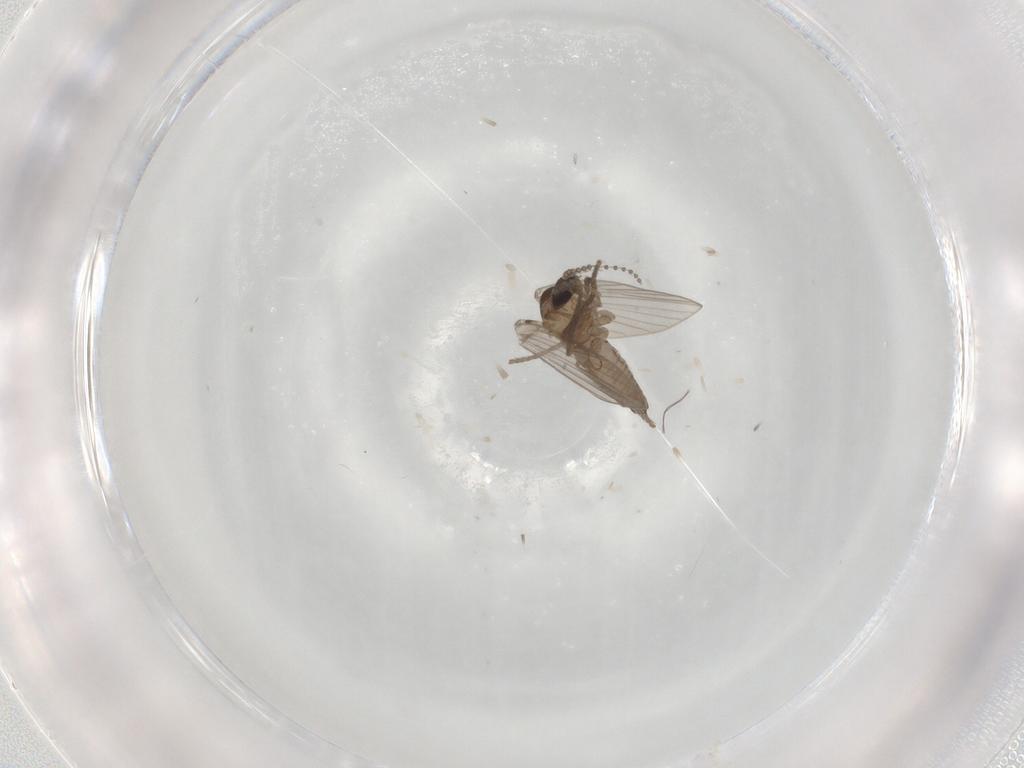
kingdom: Animalia
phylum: Arthropoda
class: Insecta
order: Diptera
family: Psychodidae
